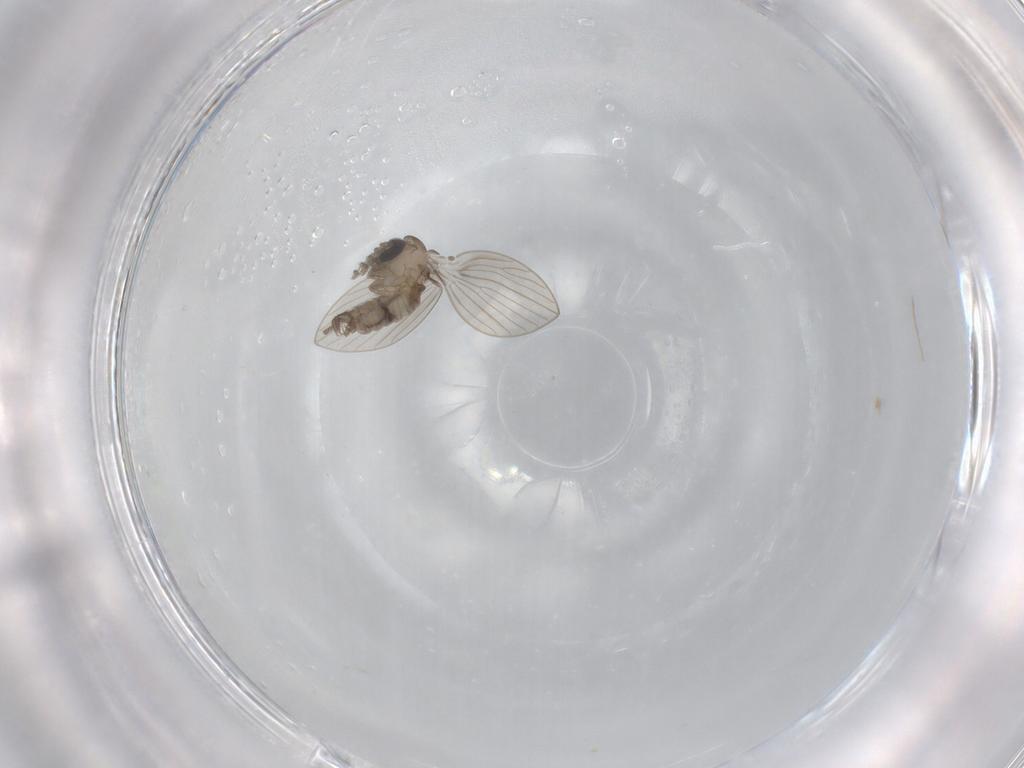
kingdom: Animalia
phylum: Arthropoda
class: Insecta
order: Diptera
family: Psychodidae
